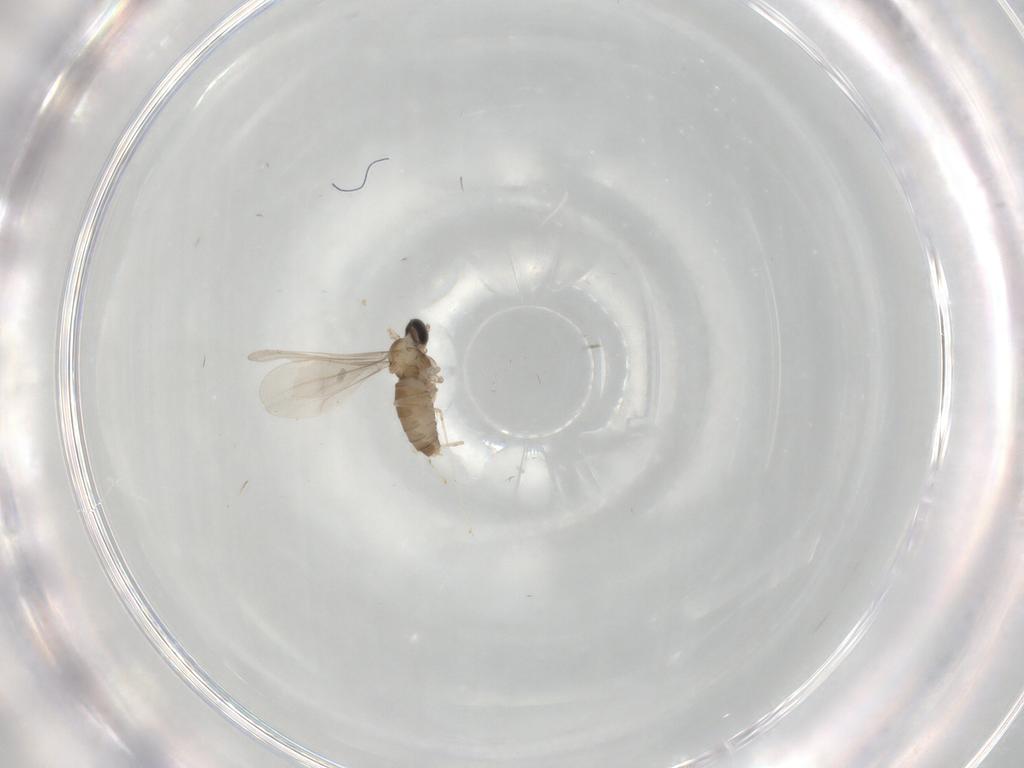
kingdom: Animalia
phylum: Arthropoda
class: Insecta
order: Diptera
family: Cecidomyiidae
